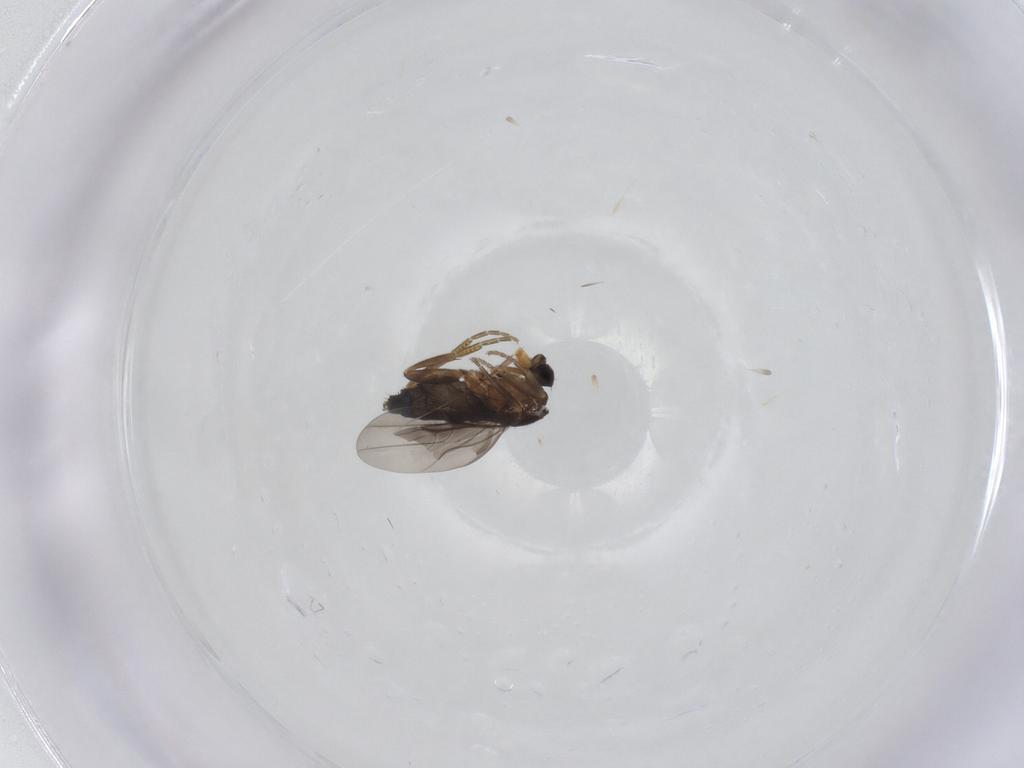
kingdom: Animalia
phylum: Arthropoda
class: Insecta
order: Diptera
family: Phoridae
